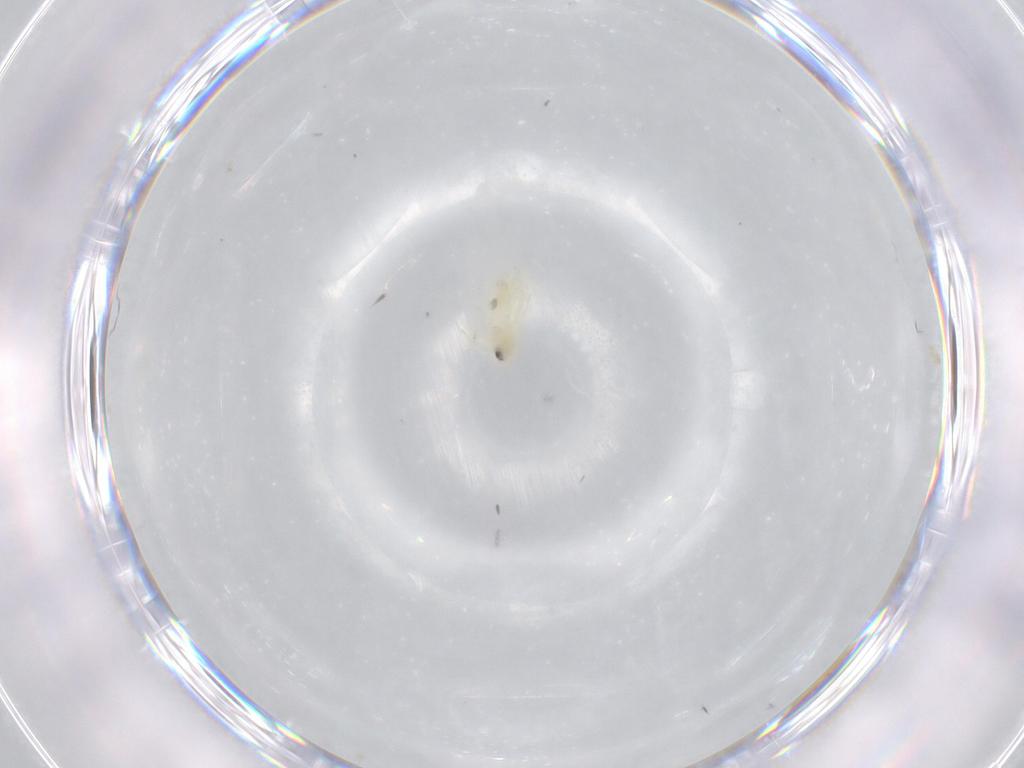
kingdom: Animalia
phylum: Arthropoda
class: Insecta
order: Hemiptera
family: Aleyrodidae
